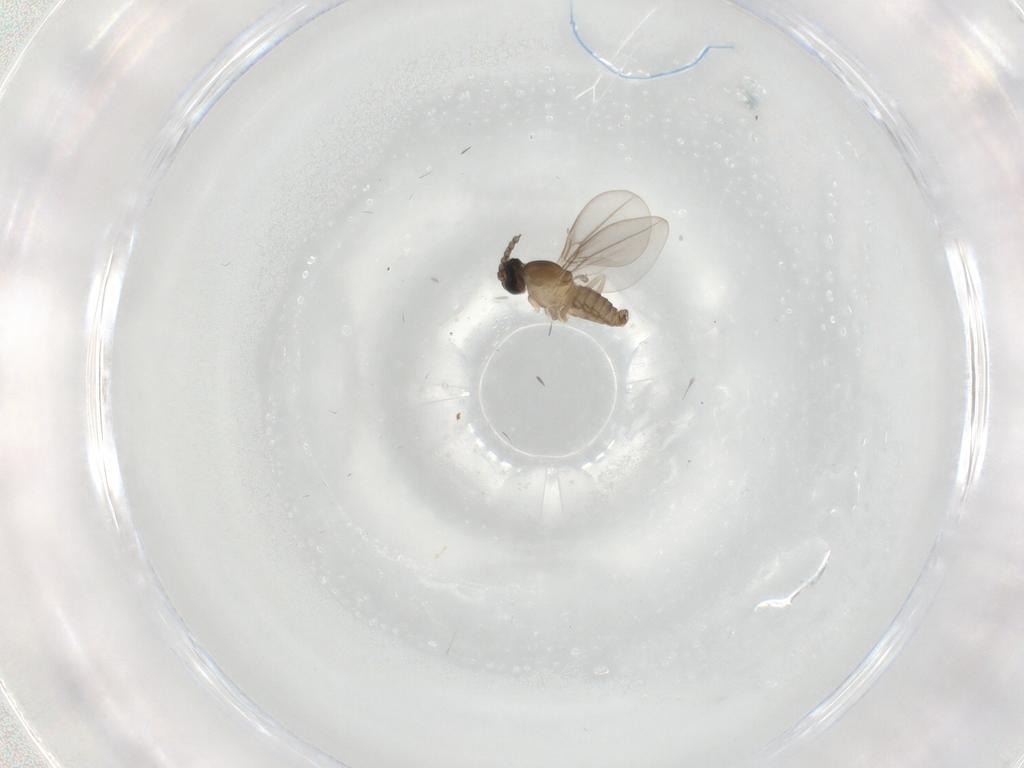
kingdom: Animalia
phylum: Arthropoda
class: Insecta
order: Diptera
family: Cecidomyiidae
